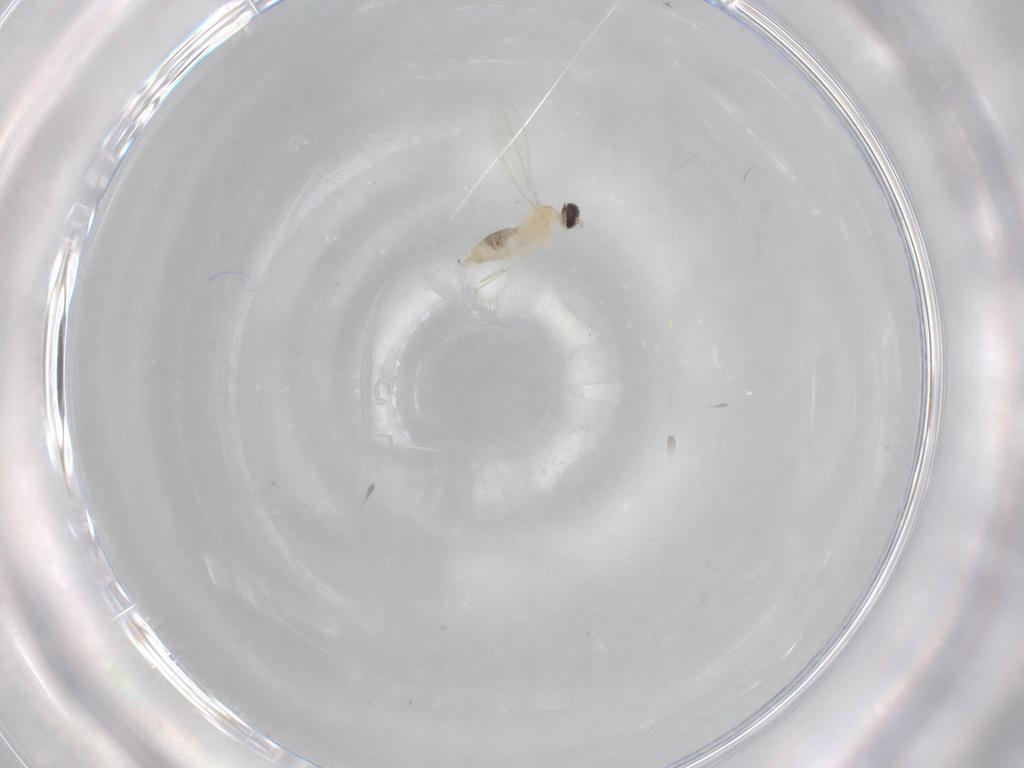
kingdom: Animalia
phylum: Arthropoda
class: Insecta
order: Diptera
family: Cecidomyiidae
